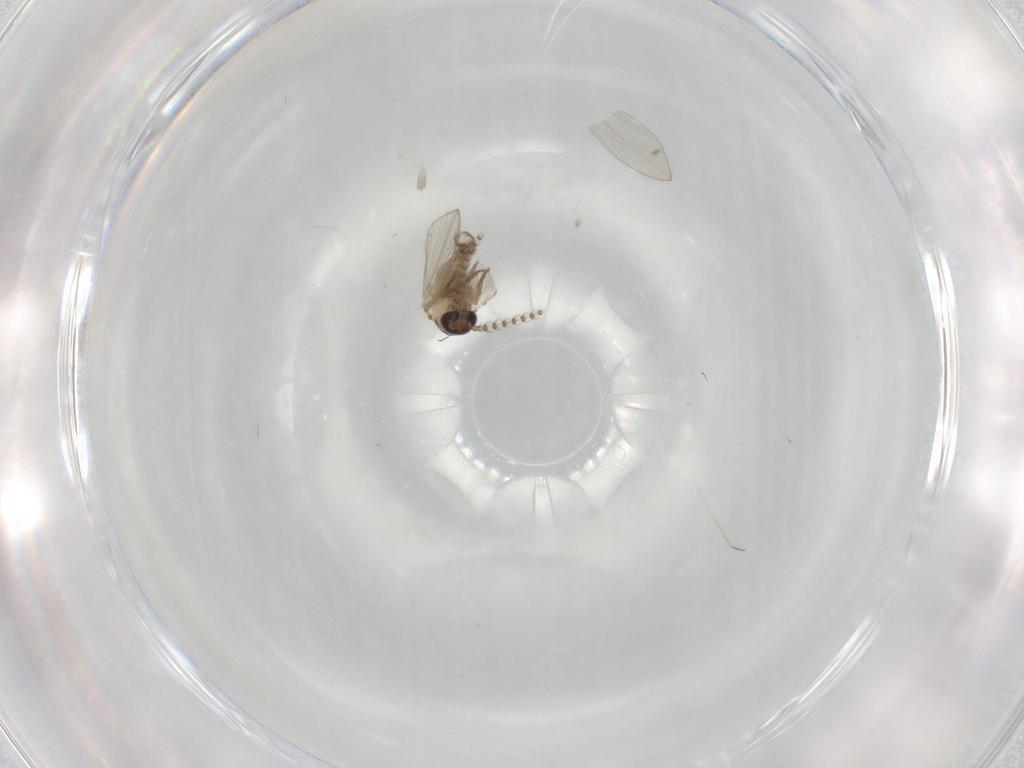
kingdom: Animalia
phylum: Arthropoda
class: Insecta
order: Diptera
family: Psychodidae
